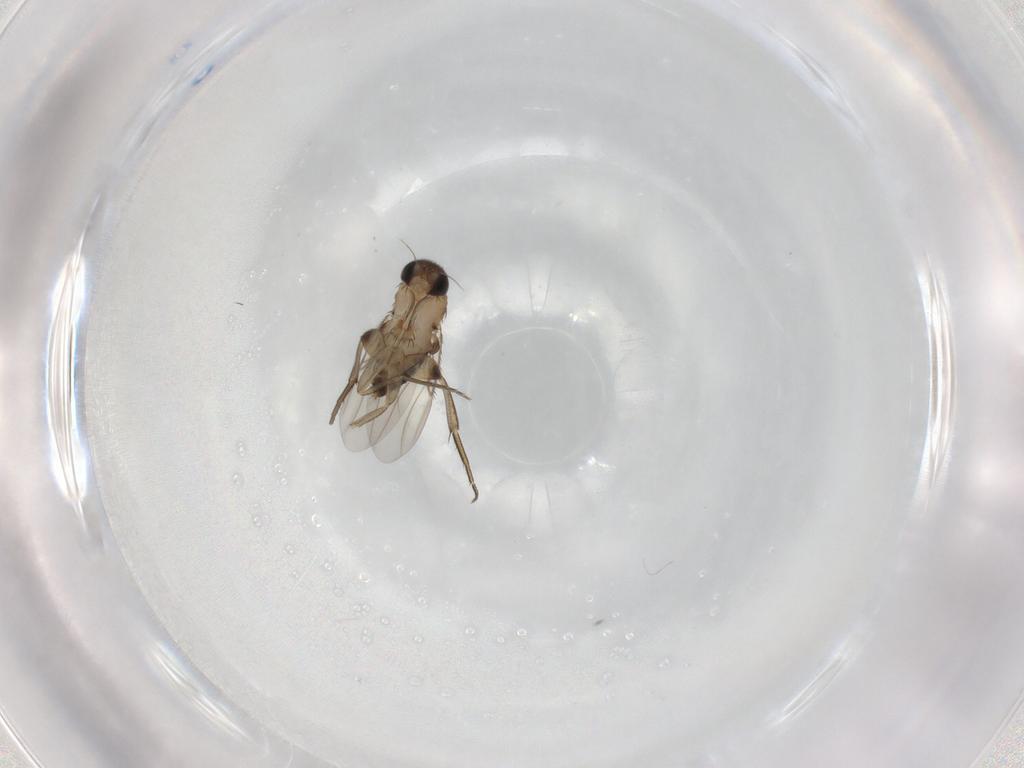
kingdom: Animalia
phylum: Arthropoda
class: Insecta
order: Diptera
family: Phoridae
